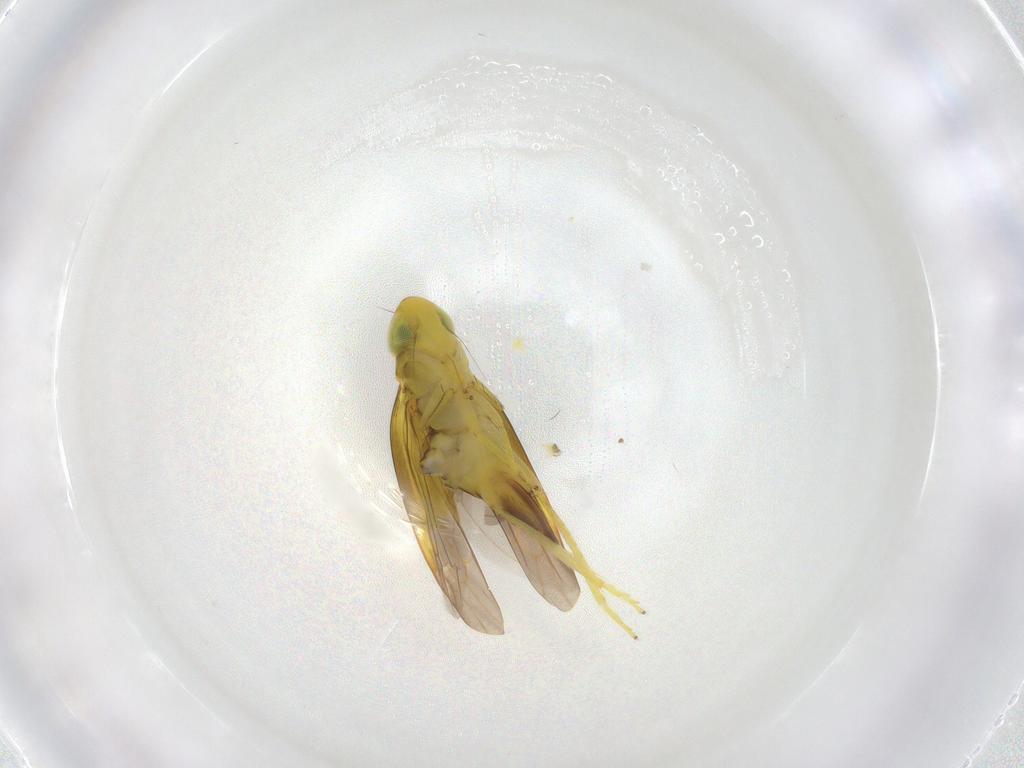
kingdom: Animalia
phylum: Arthropoda
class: Insecta
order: Hemiptera
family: Cicadellidae
